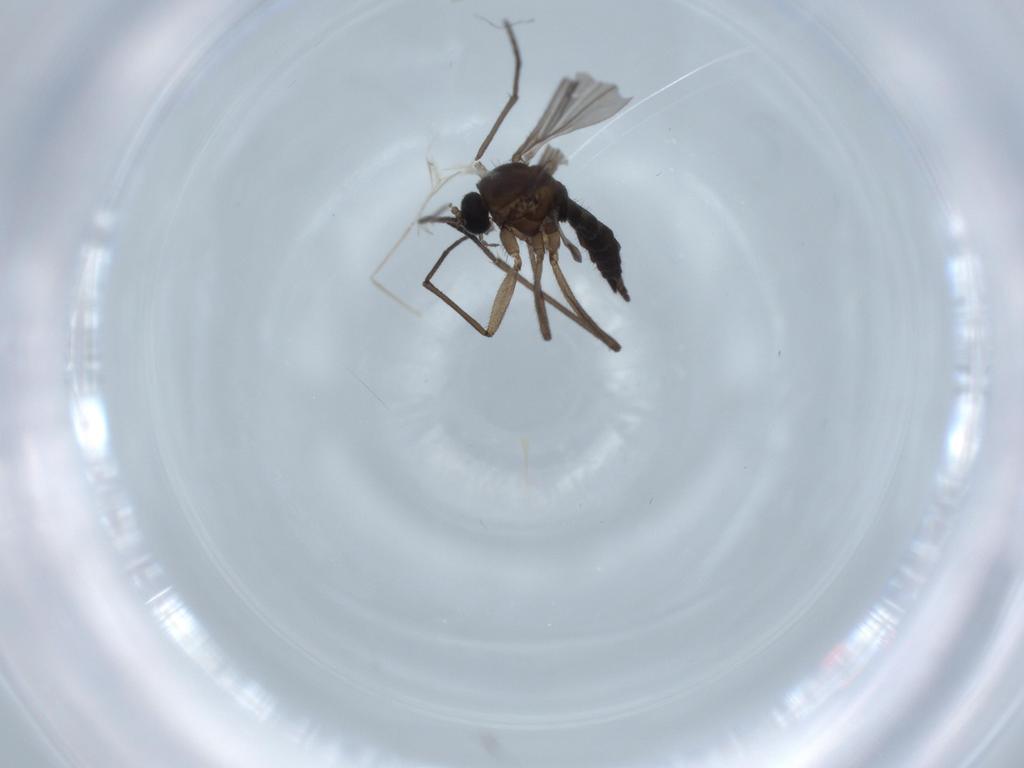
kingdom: Animalia
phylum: Arthropoda
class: Insecta
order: Diptera
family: Sciaridae
